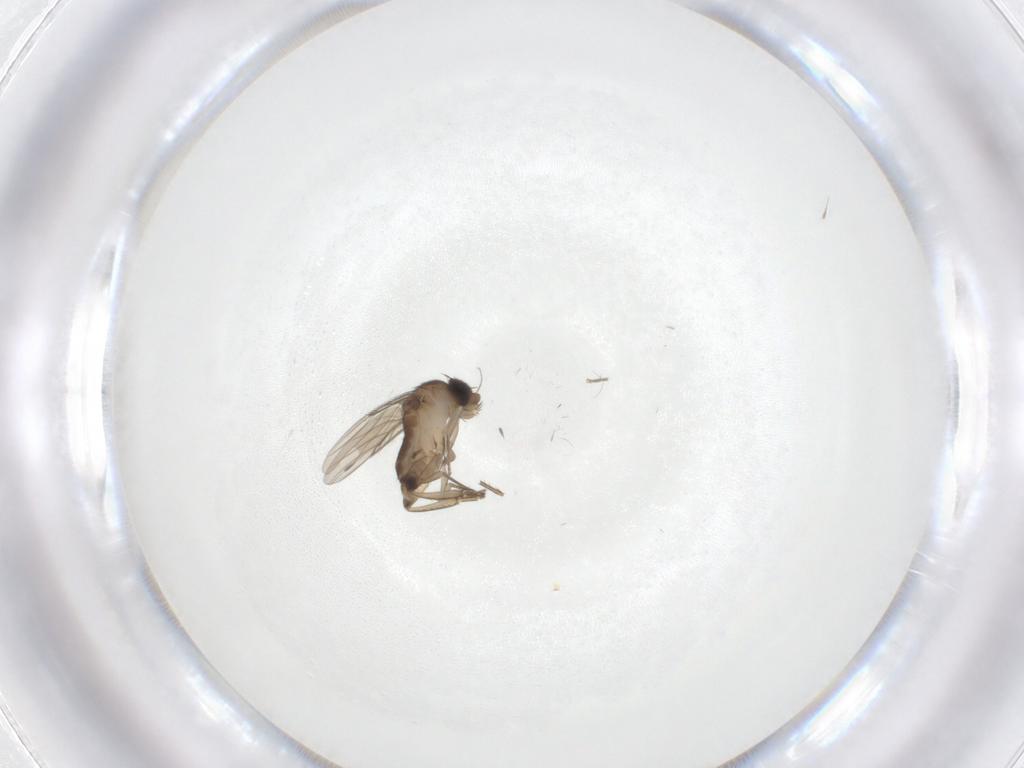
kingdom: Animalia
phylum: Arthropoda
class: Insecta
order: Diptera
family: Phoridae
